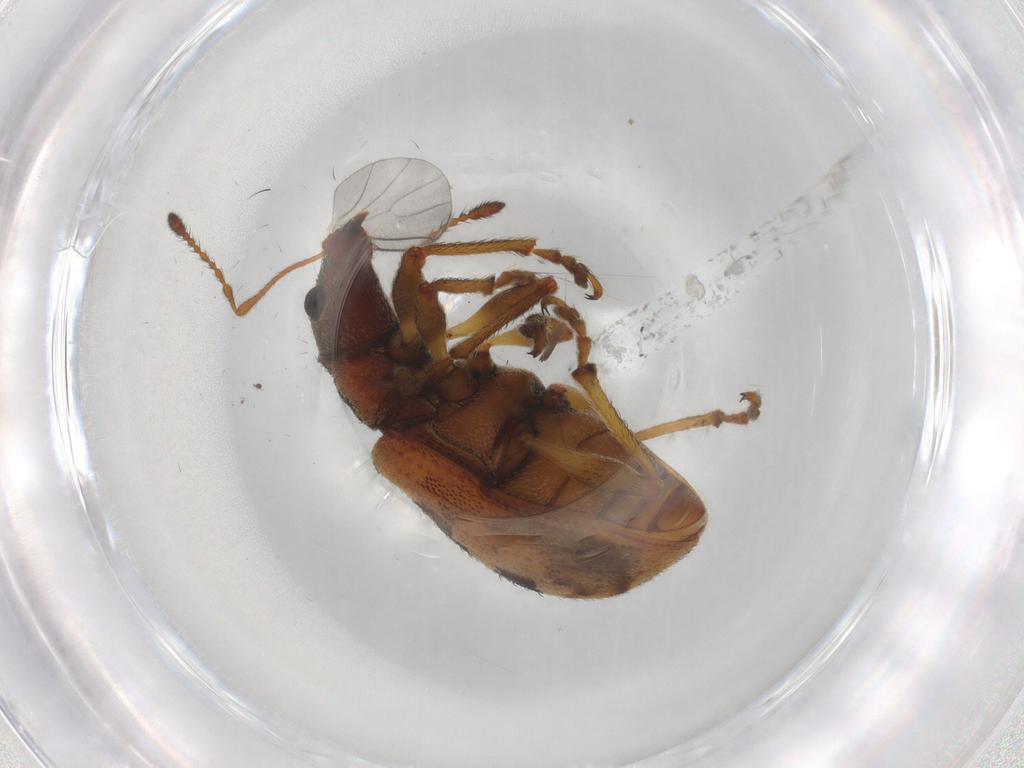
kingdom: Animalia
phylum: Arthropoda
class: Insecta
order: Coleoptera
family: Curculionidae
